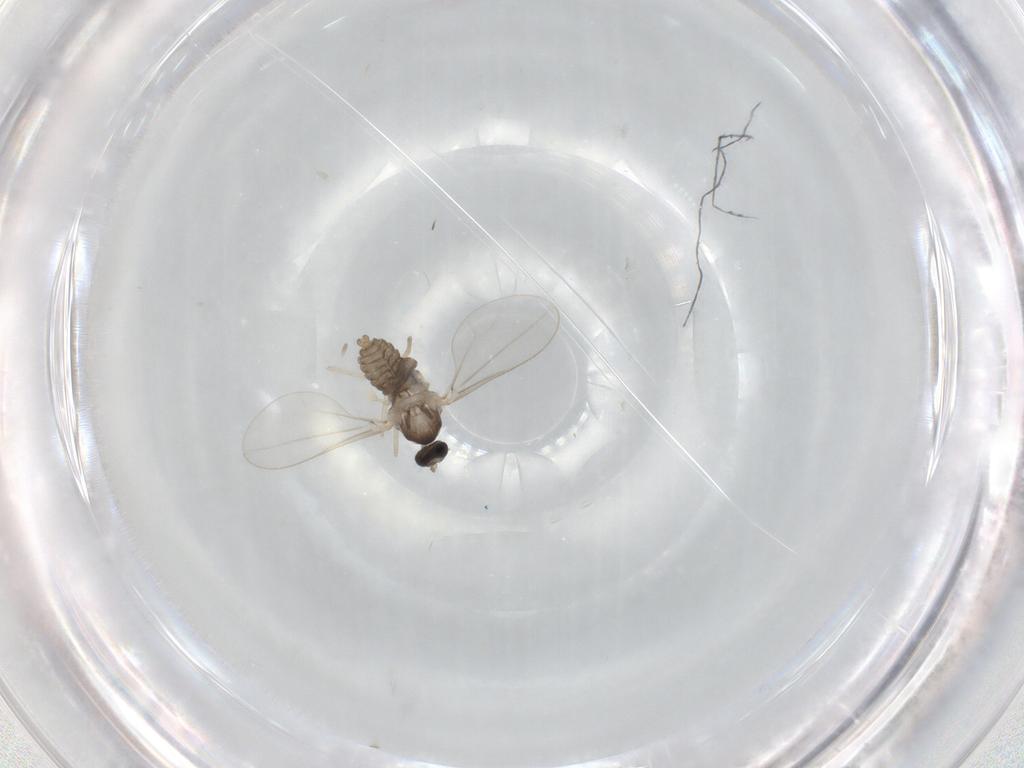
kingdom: Animalia
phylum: Arthropoda
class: Insecta
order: Diptera
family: Cecidomyiidae
